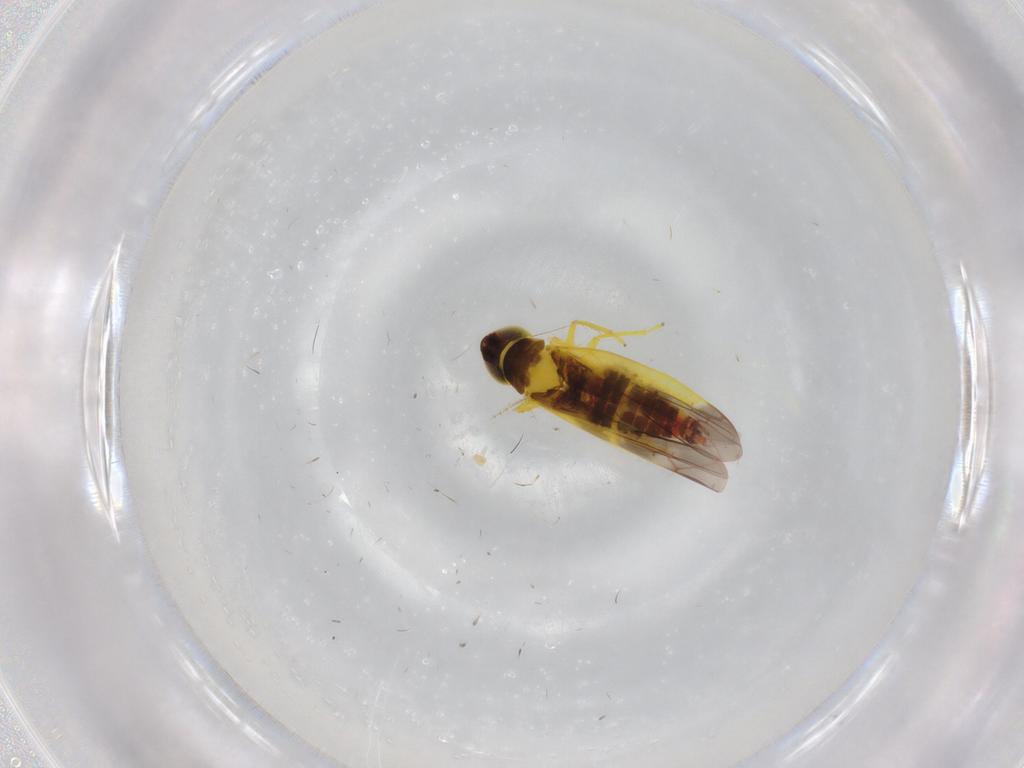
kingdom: Animalia
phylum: Arthropoda
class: Insecta
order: Hemiptera
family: Cicadellidae
